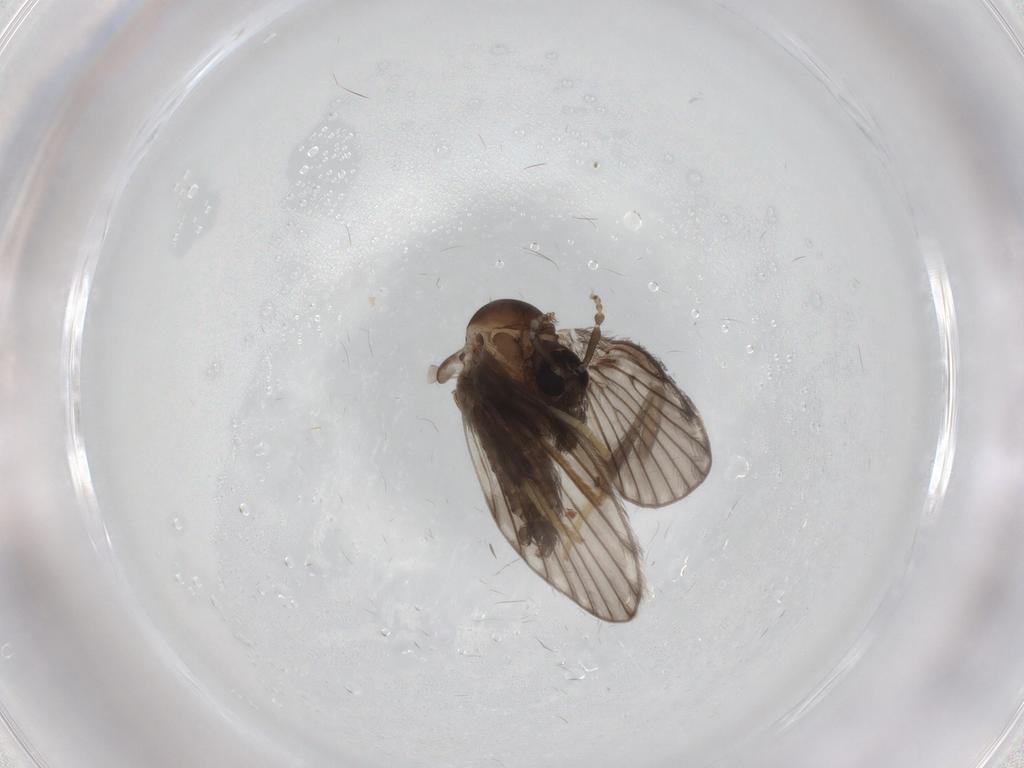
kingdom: Animalia
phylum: Arthropoda
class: Insecta
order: Diptera
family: Psychodidae
